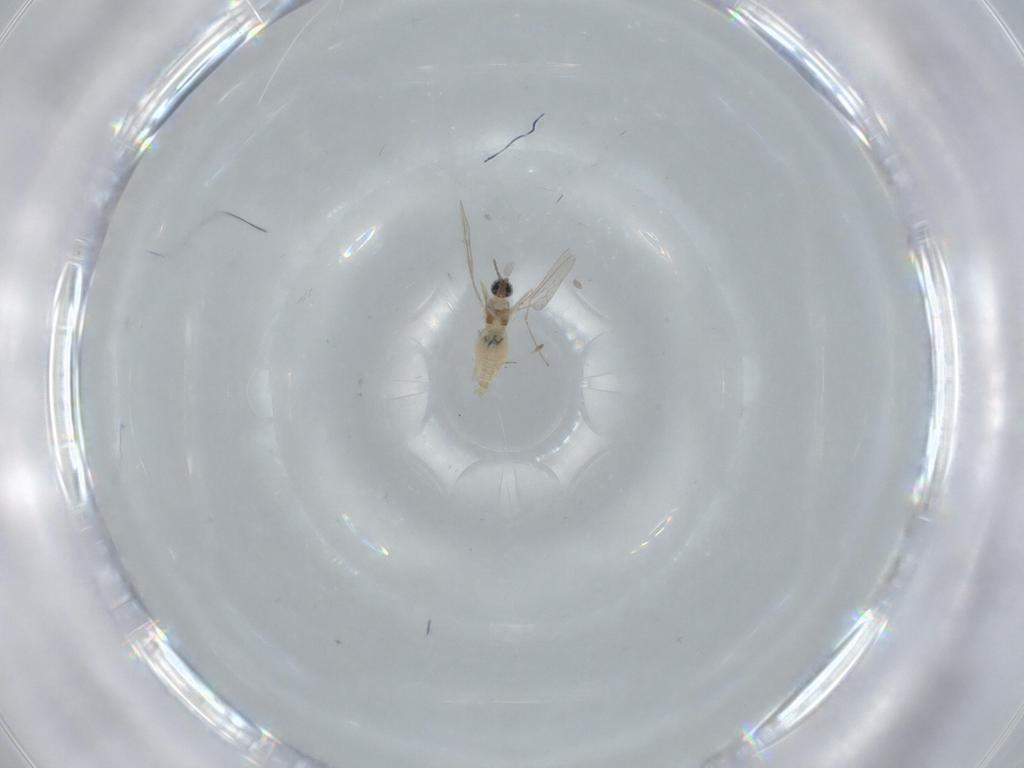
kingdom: Animalia
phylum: Arthropoda
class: Insecta
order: Diptera
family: Cecidomyiidae
